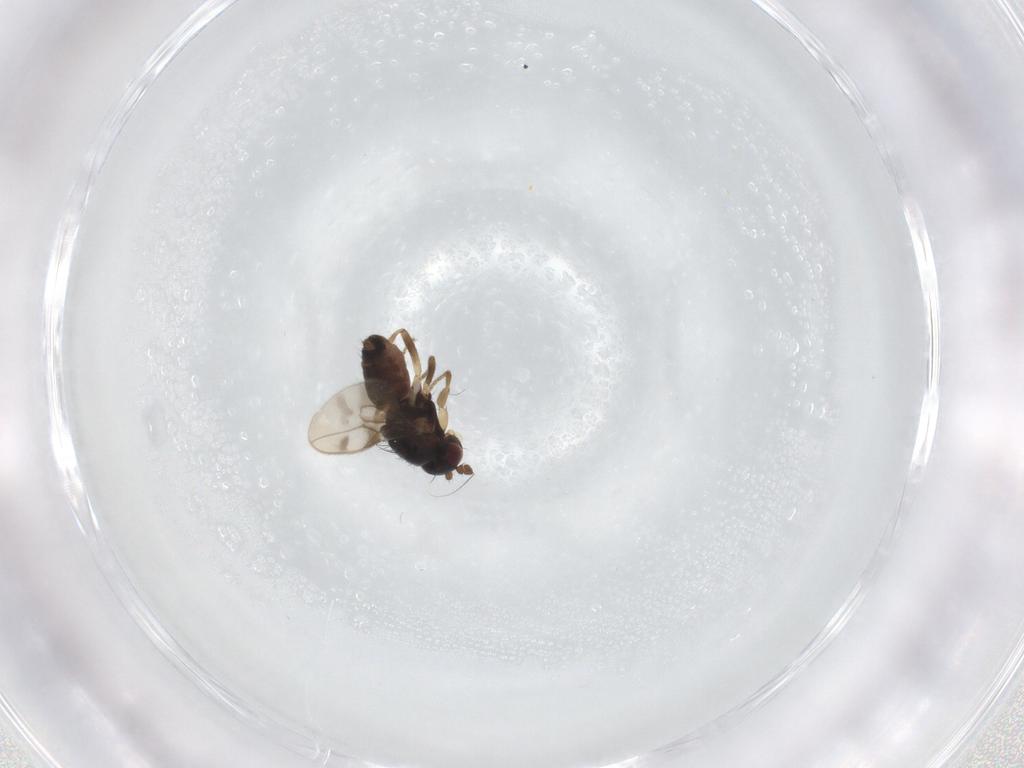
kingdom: Animalia
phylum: Arthropoda
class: Insecta
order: Diptera
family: Sphaeroceridae
